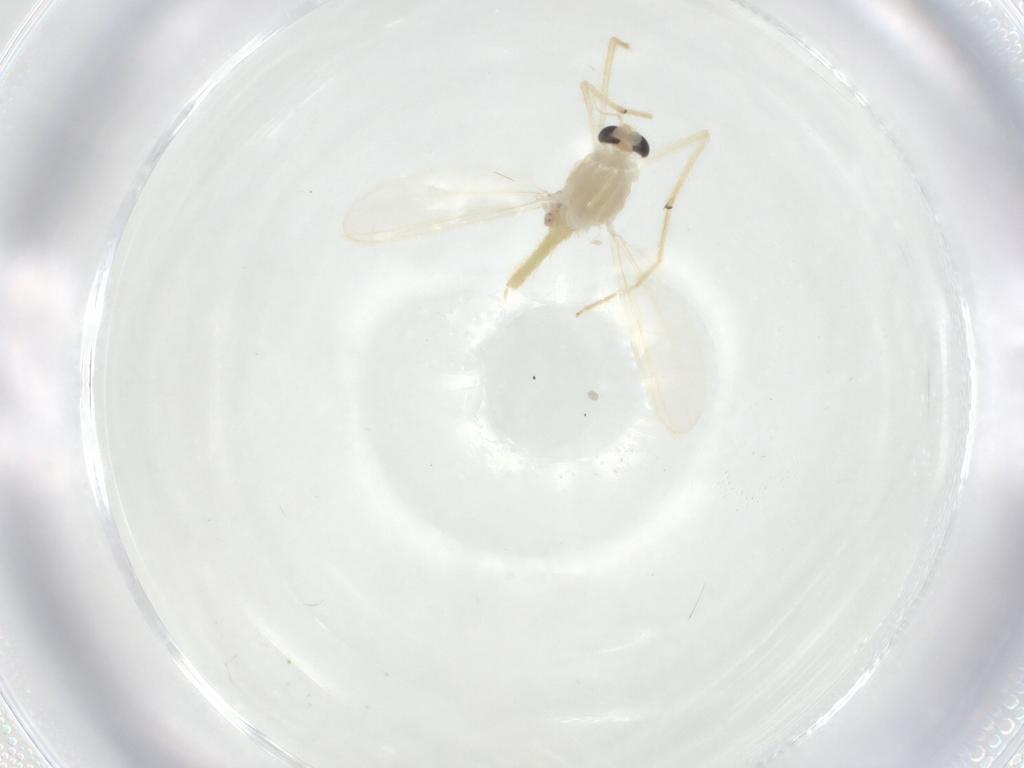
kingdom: Animalia
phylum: Arthropoda
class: Insecta
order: Diptera
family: Chironomidae
